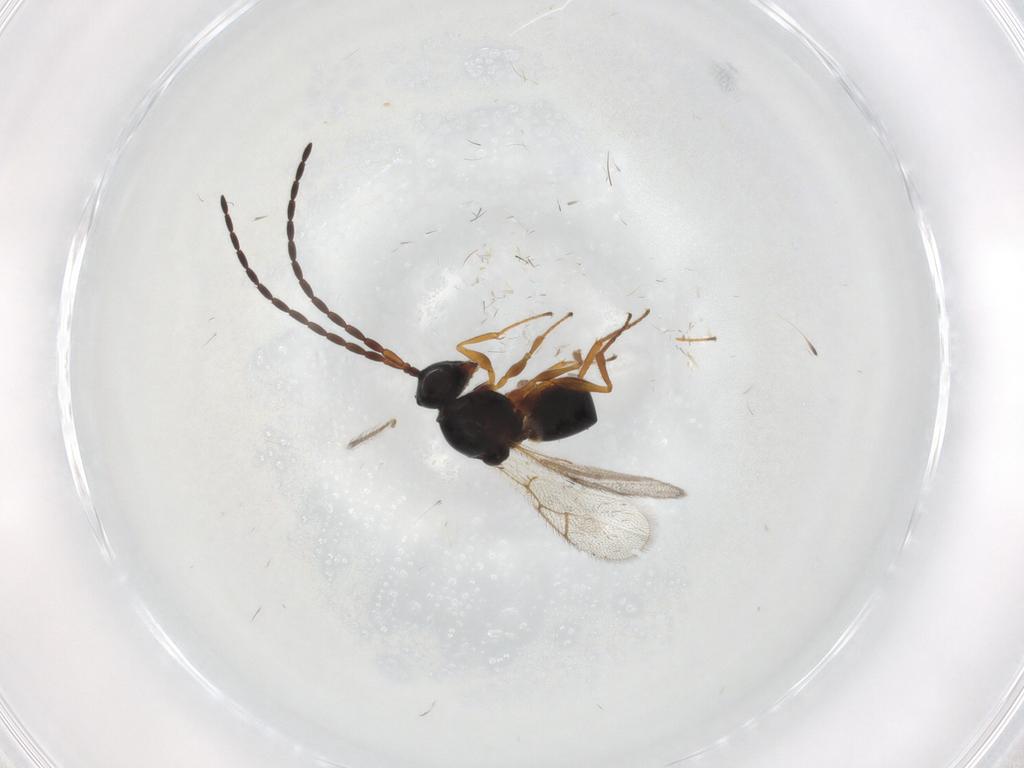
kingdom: Animalia
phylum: Arthropoda
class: Insecta
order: Hymenoptera
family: Figitidae
